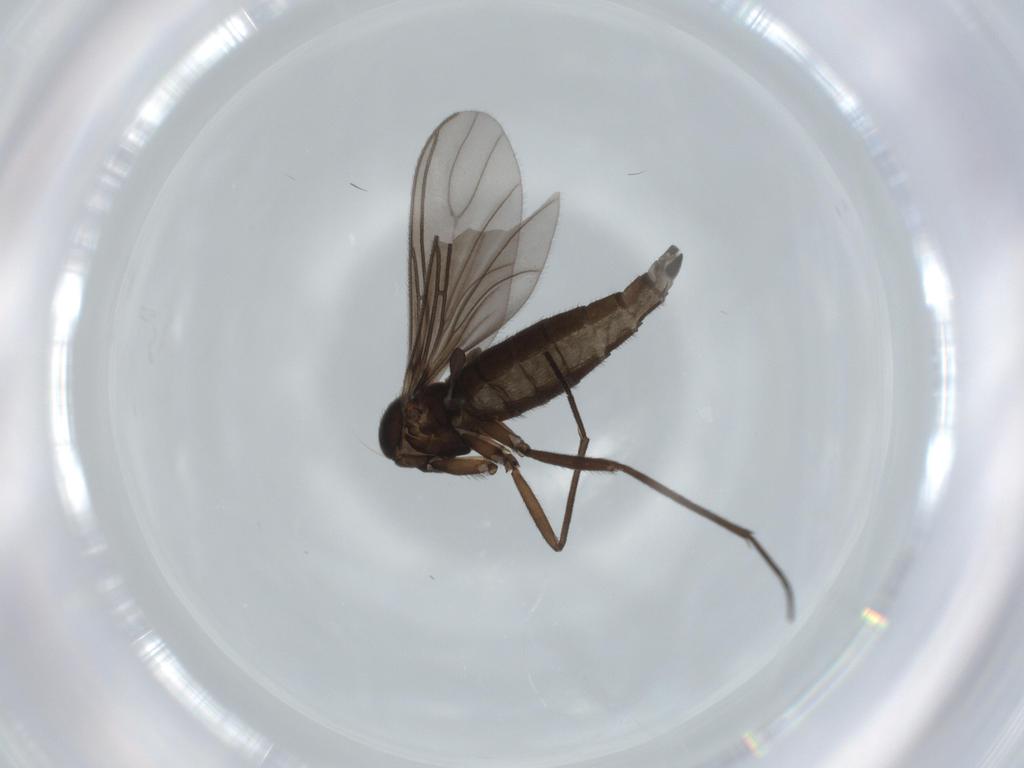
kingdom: Animalia
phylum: Arthropoda
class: Insecta
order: Diptera
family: Sciaridae
